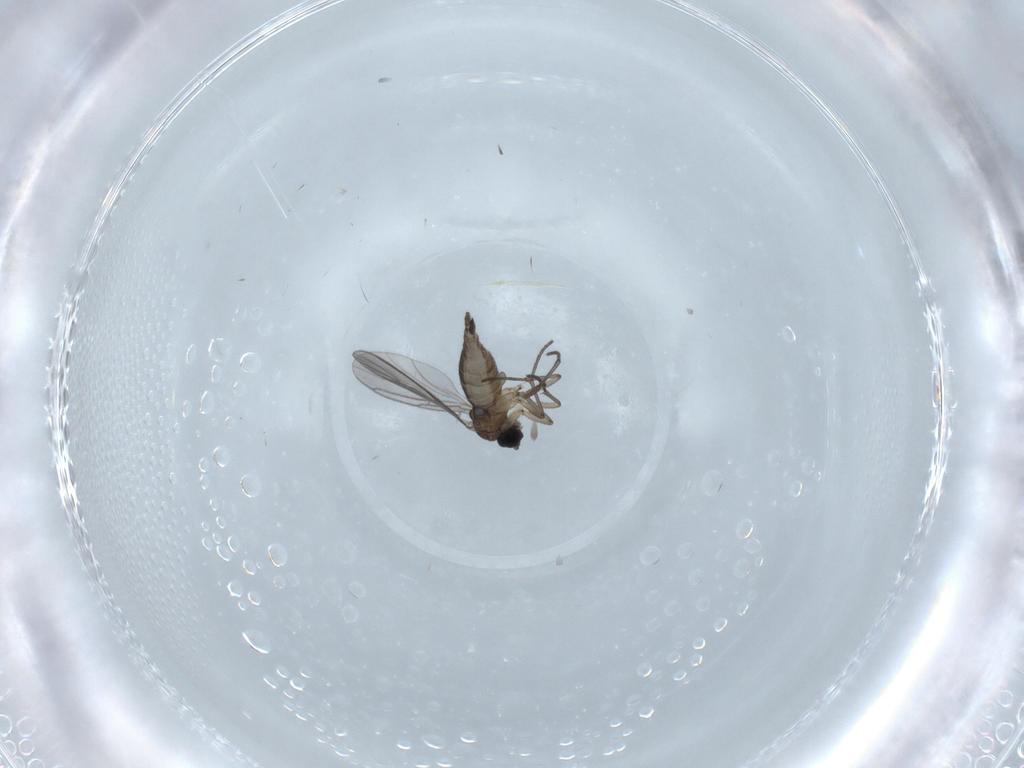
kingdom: Animalia
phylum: Arthropoda
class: Insecta
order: Diptera
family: Sciaridae
